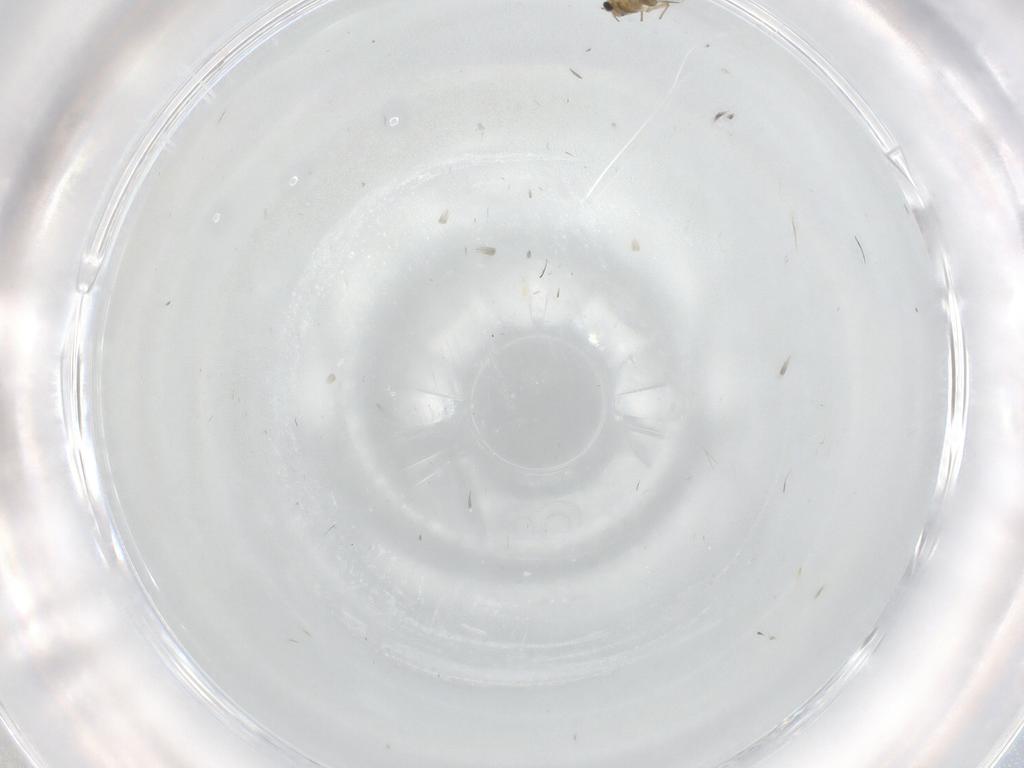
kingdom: Animalia
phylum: Arthropoda
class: Insecta
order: Diptera
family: Chironomidae
